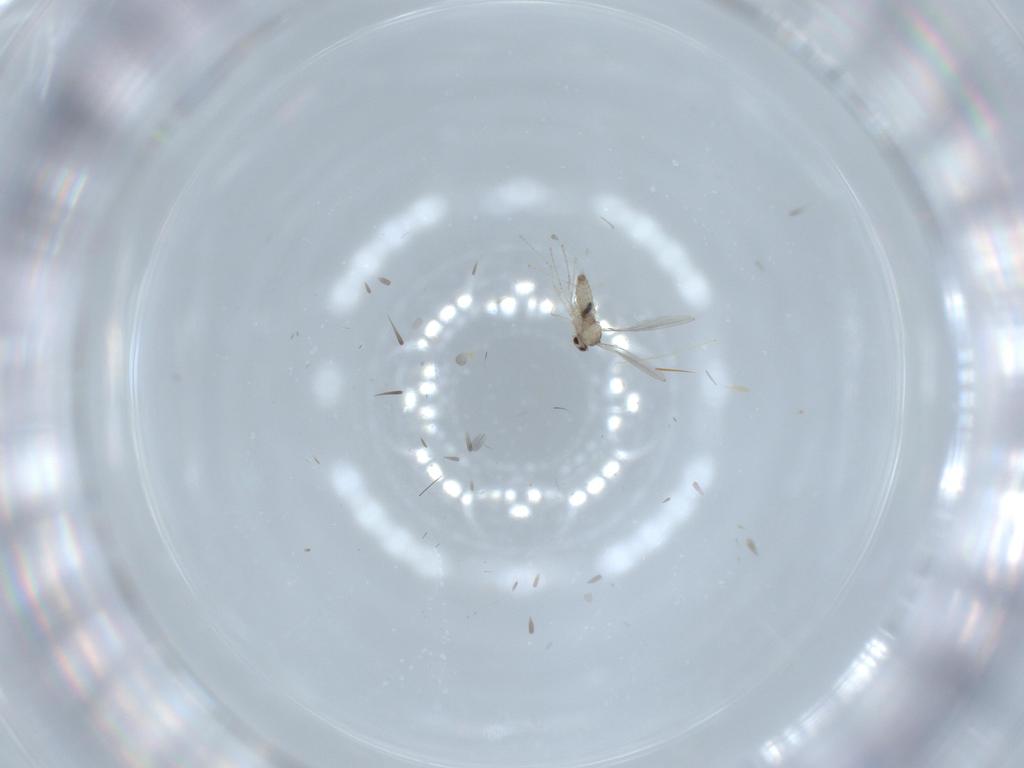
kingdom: Animalia
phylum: Arthropoda
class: Insecta
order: Diptera
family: Cecidomyiidae
